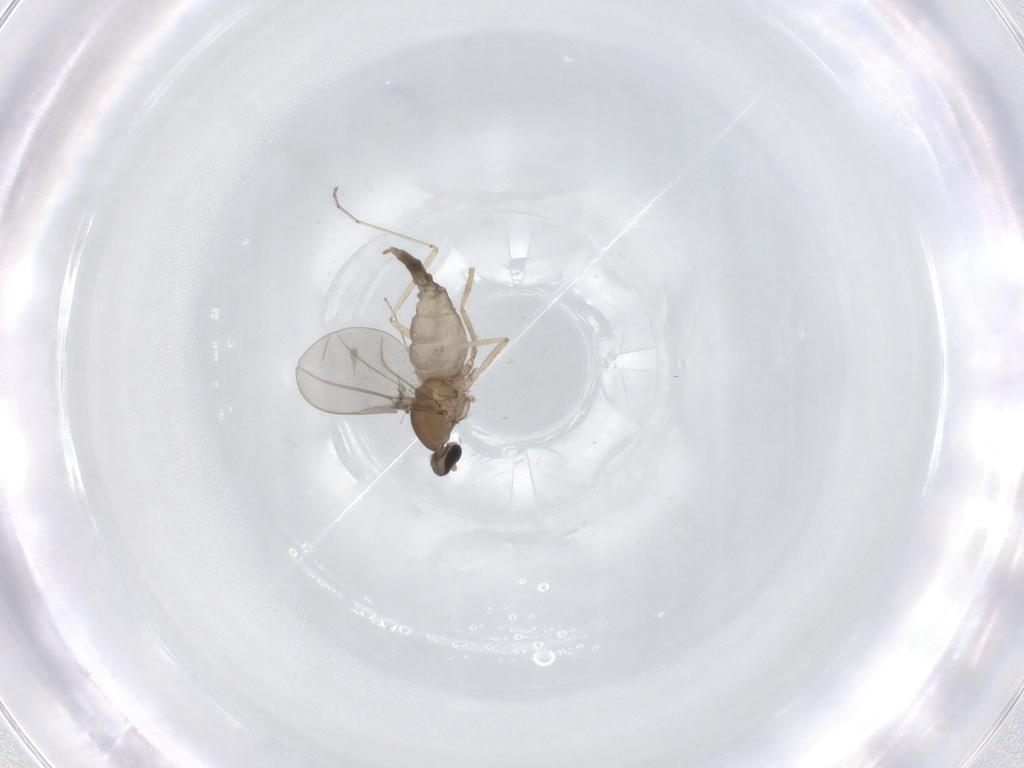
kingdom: Animalia
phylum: Arthropoda
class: Insecta
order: Diptera
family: Cecidomyiidae
